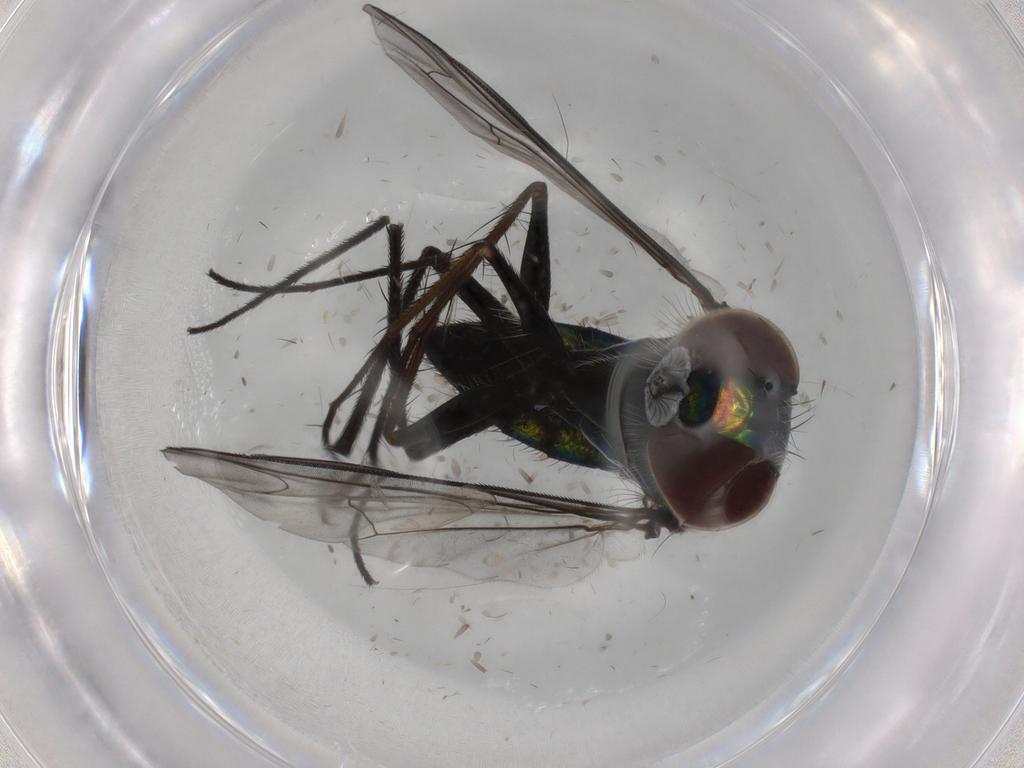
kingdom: Animalia
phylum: Arthropoda
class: Insecta
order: Diptera
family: Dolichopodidae
